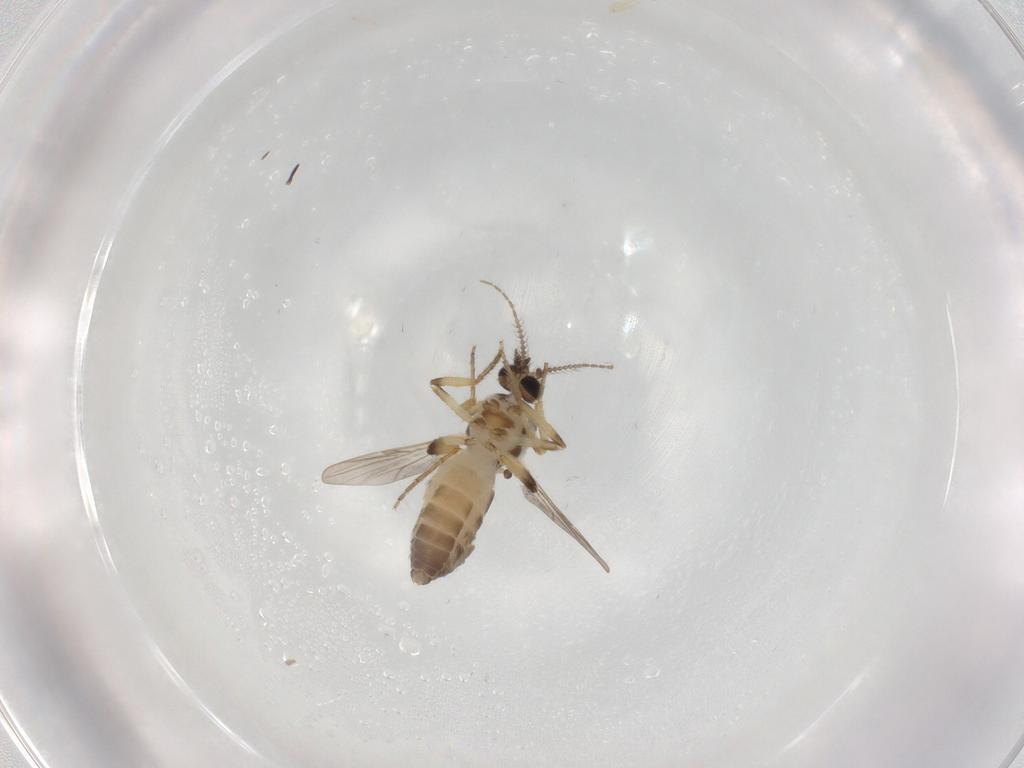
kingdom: Animalia
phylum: Arthropoda
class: Insecta
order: Diptera
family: Ceratopogonidae
